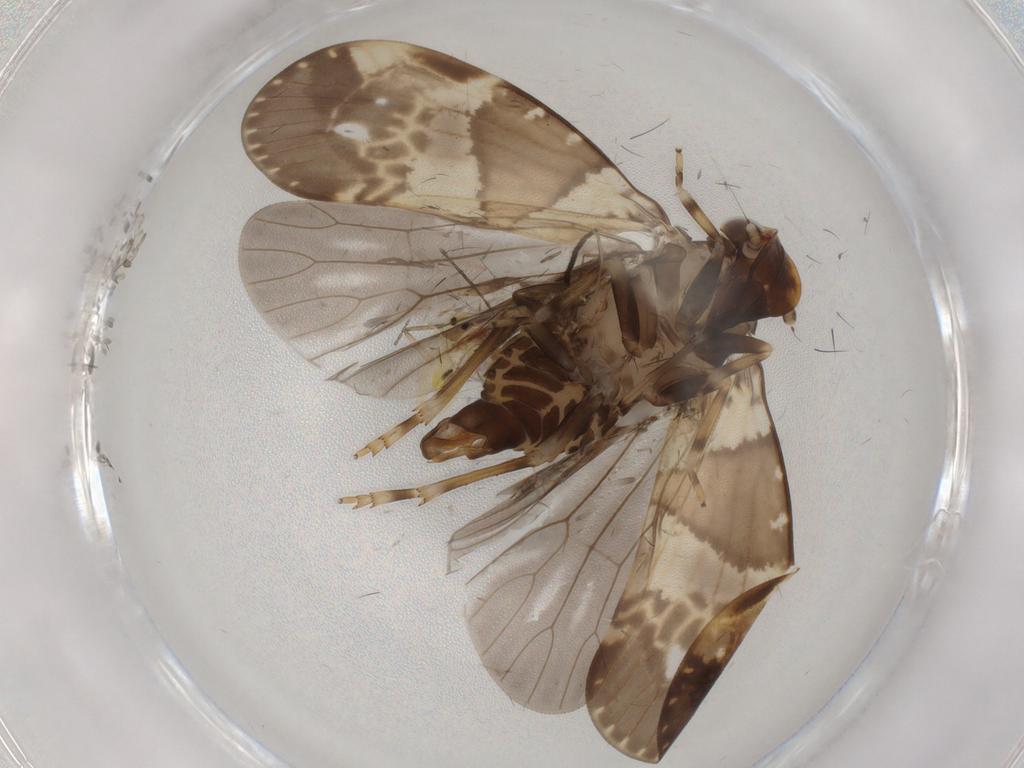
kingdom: Animalia
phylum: Arthropoda
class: Insecta
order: Hemiptera
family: Cixiidae
